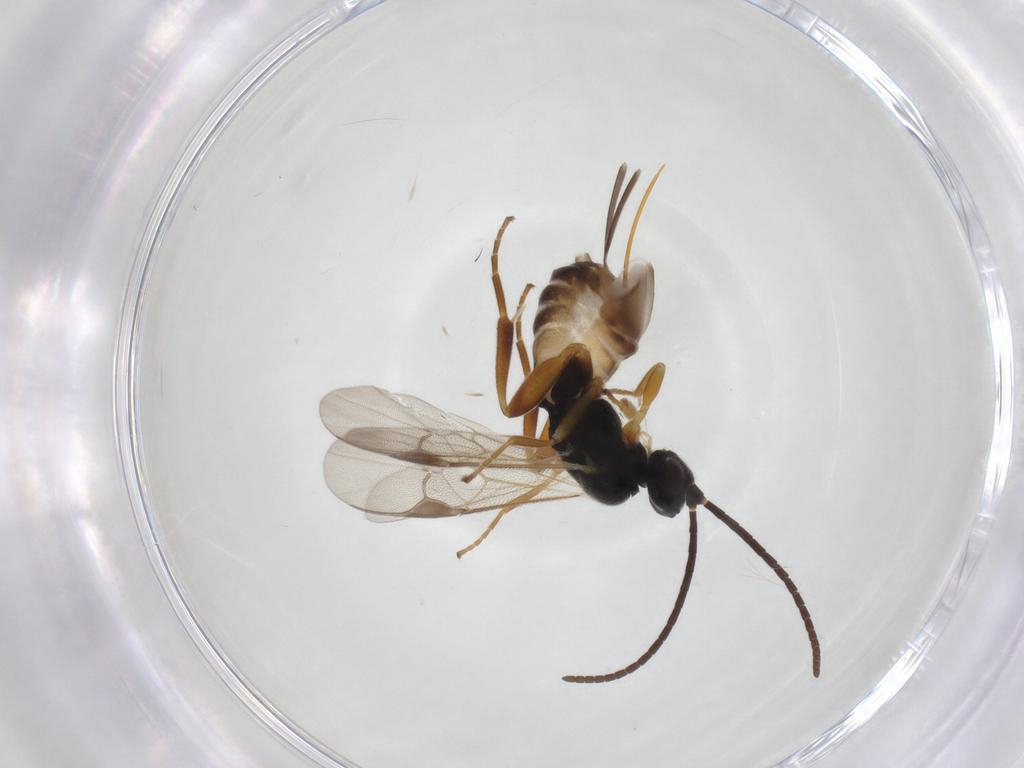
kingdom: Animalia
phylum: Arthropoda
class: Insecta
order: Hymenoptera
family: Braconidae
